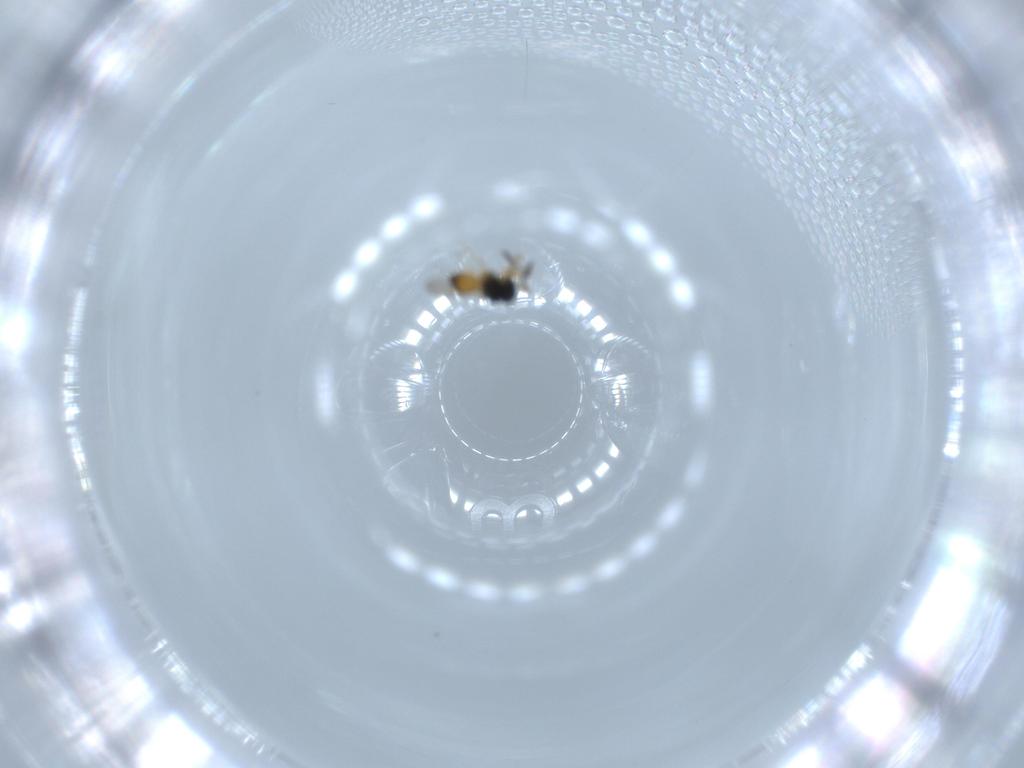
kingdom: Animalia
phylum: Arthropoda
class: Insecta
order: Hymenoptera
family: Scelionidae
